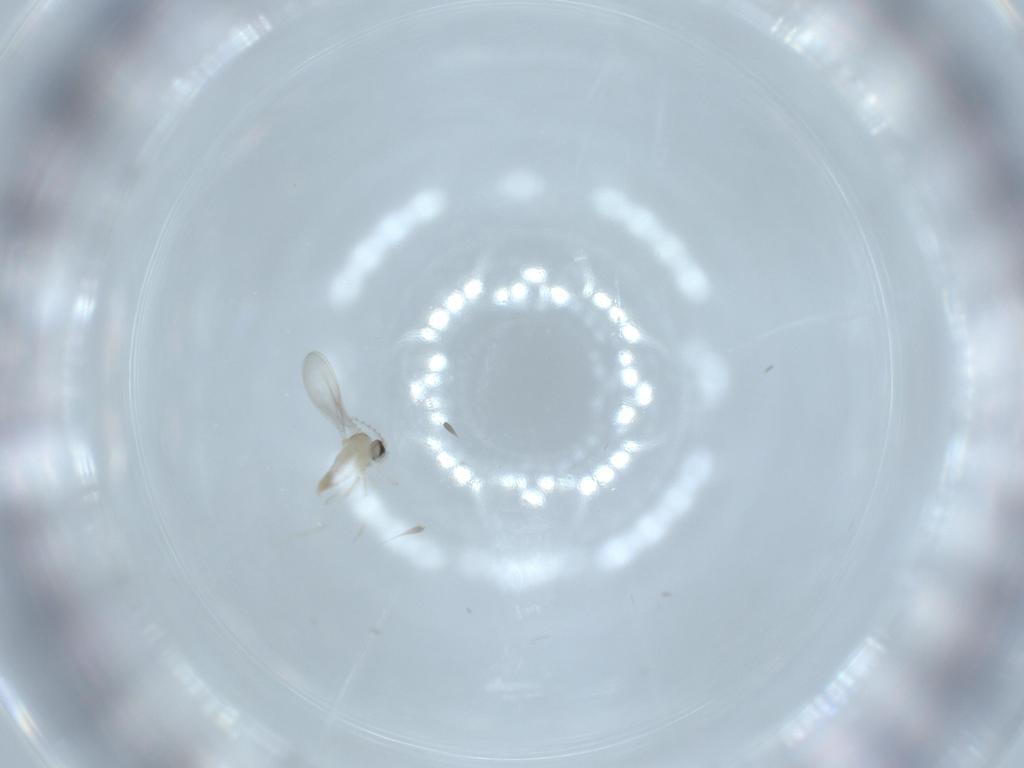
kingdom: Animalia
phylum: Arthropoda
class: Insecta
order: Diptera
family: Cecidomyiidae
